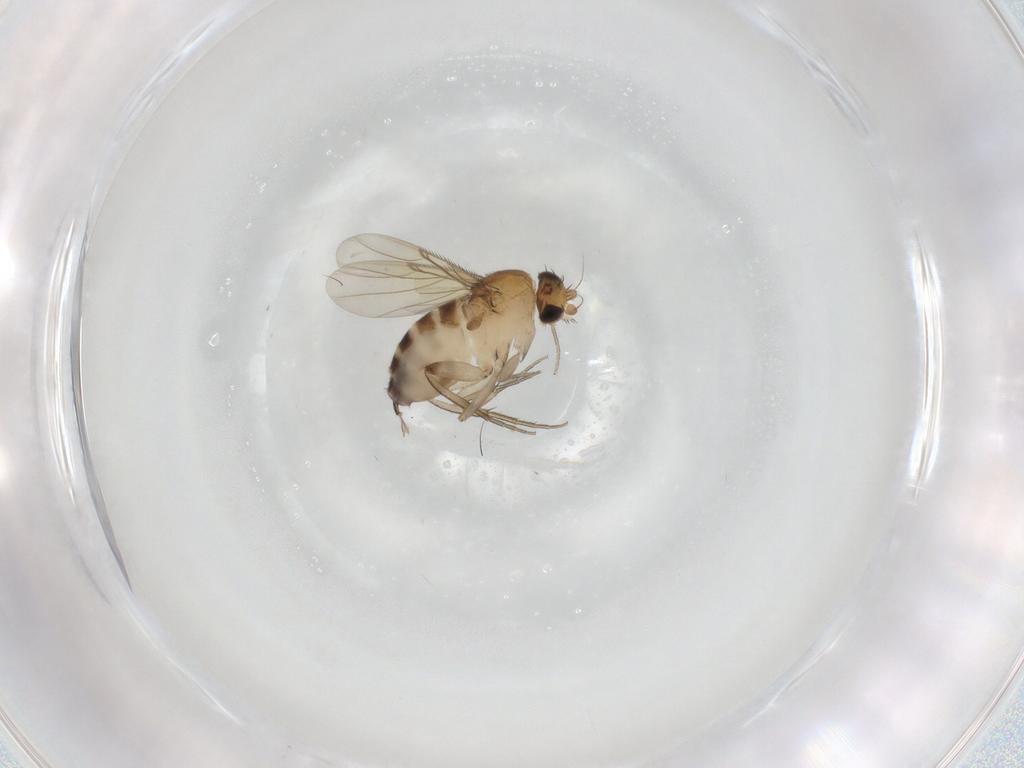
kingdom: Animalia
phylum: Arthropoda
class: Insecta
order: Diptera
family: Phoridae
